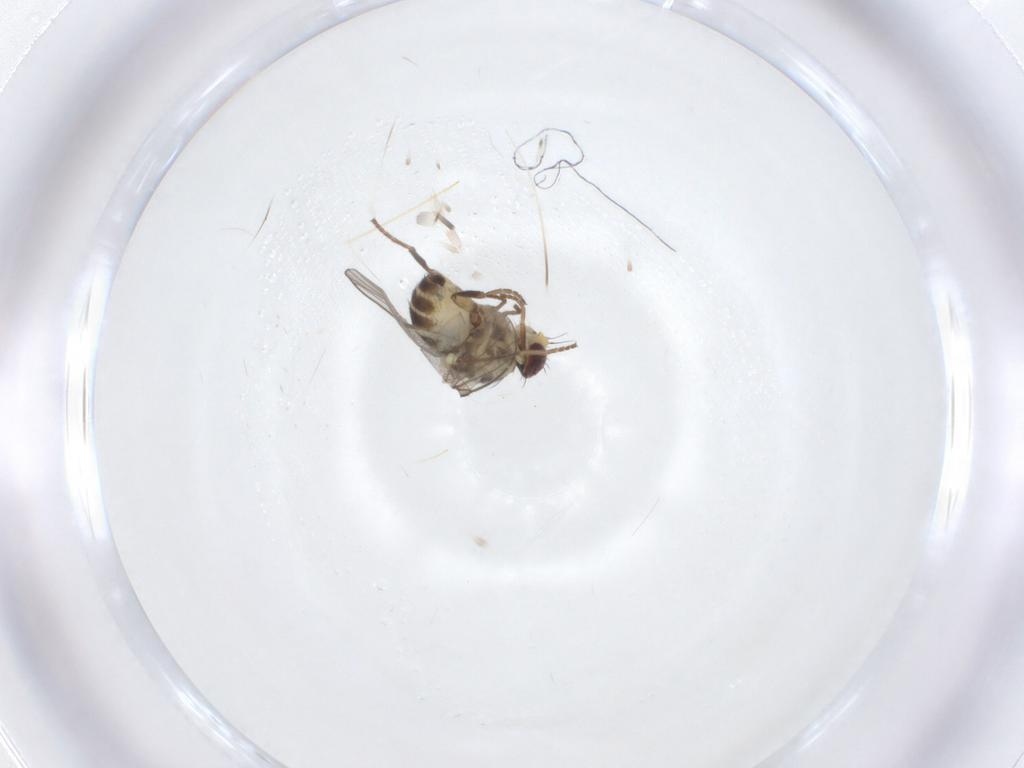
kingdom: Animalia
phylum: Arthropoda
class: Insecta
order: Diptera
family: Agromyzidae
